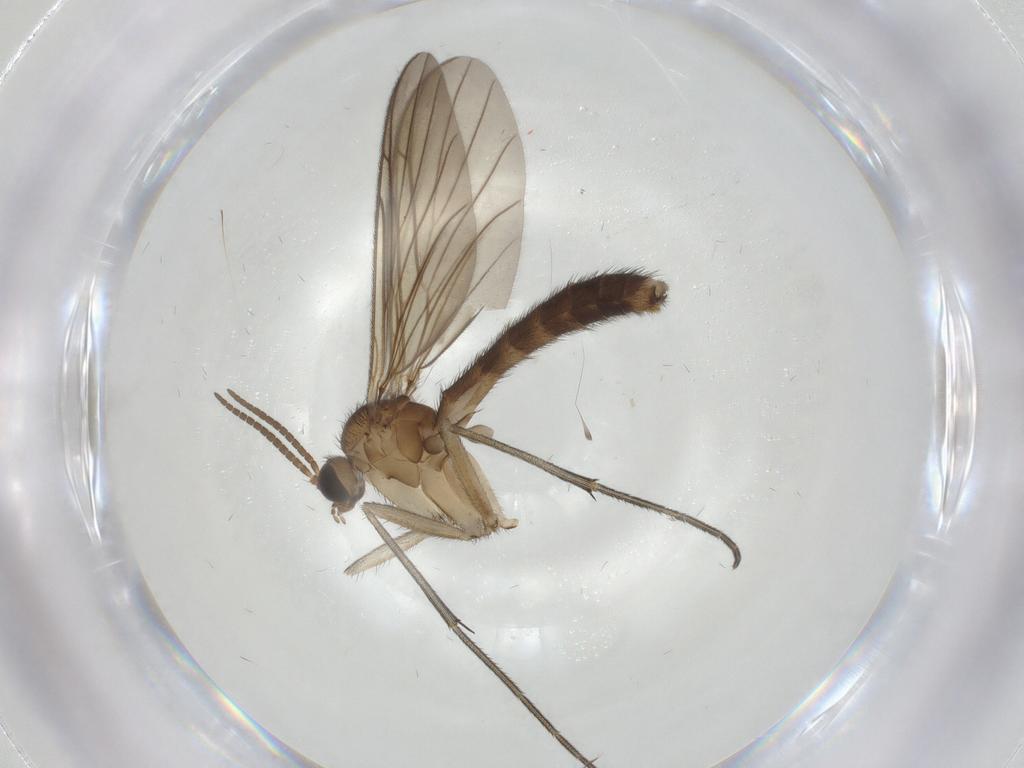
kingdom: Animalia
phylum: Arthropoda
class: Insecta
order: Diptera
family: Keroplatidae
